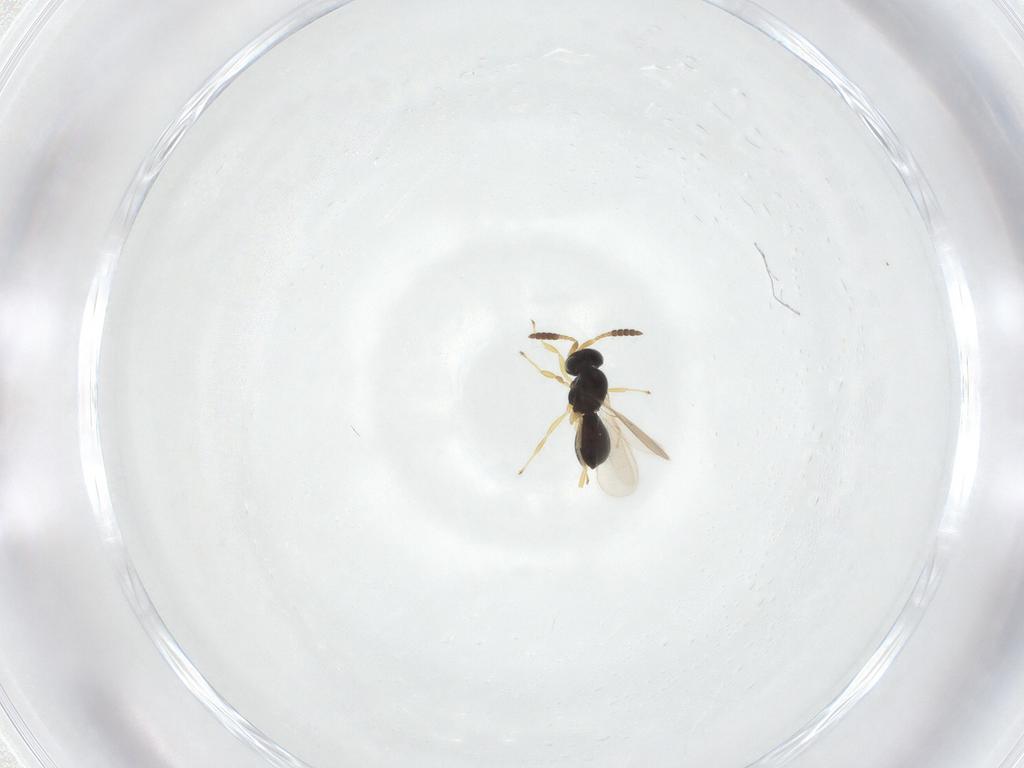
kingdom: Animalia
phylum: Arthropoda
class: Insecta
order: Hymenoptera
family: Scelionidae
